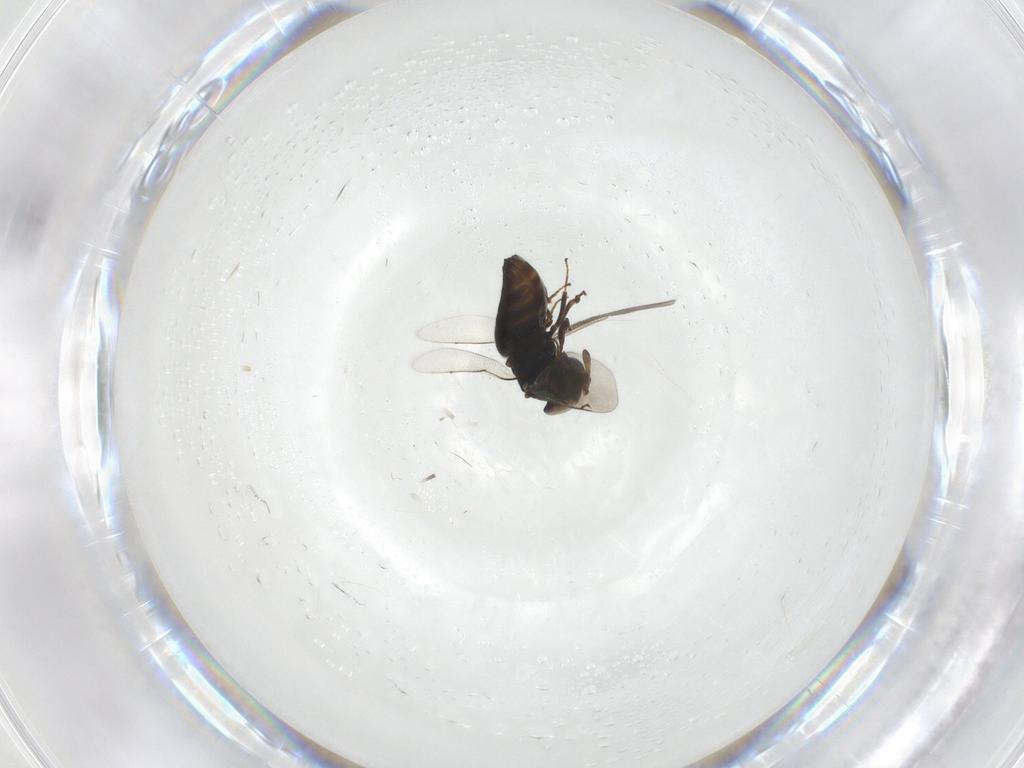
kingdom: Animalia
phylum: Arthropoda
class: Insecta
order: Hymenoptera
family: Eunotidae
